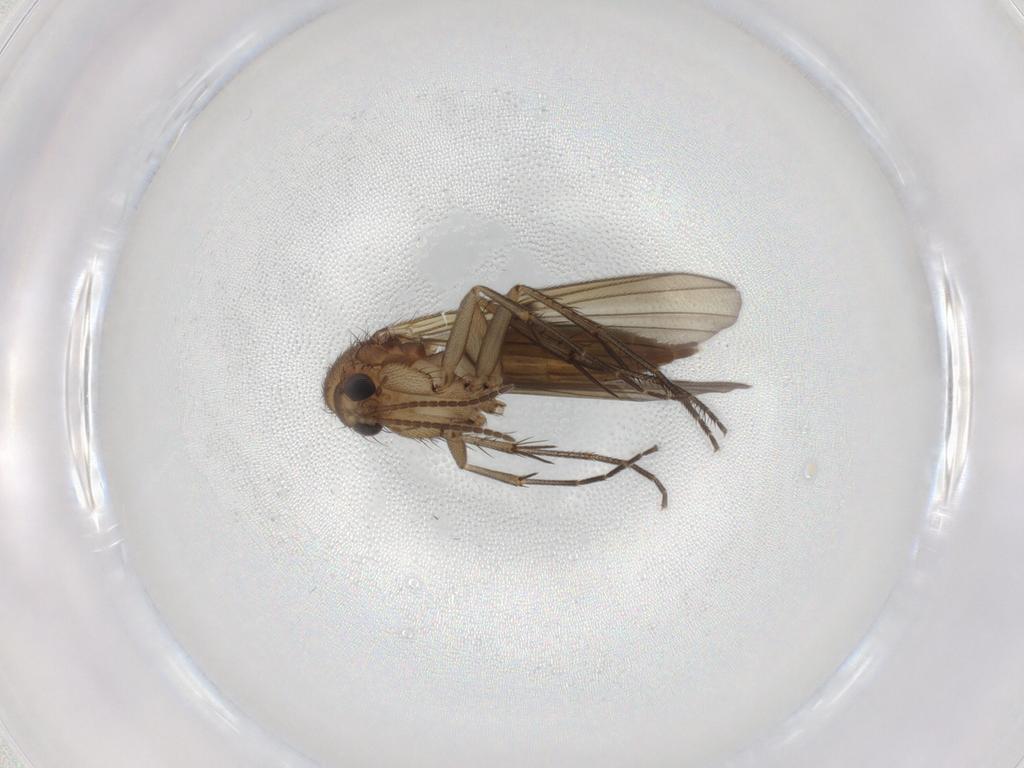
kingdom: Animalia
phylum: Arthropoda
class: Insecta
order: Diptera
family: Mycetophilidae
